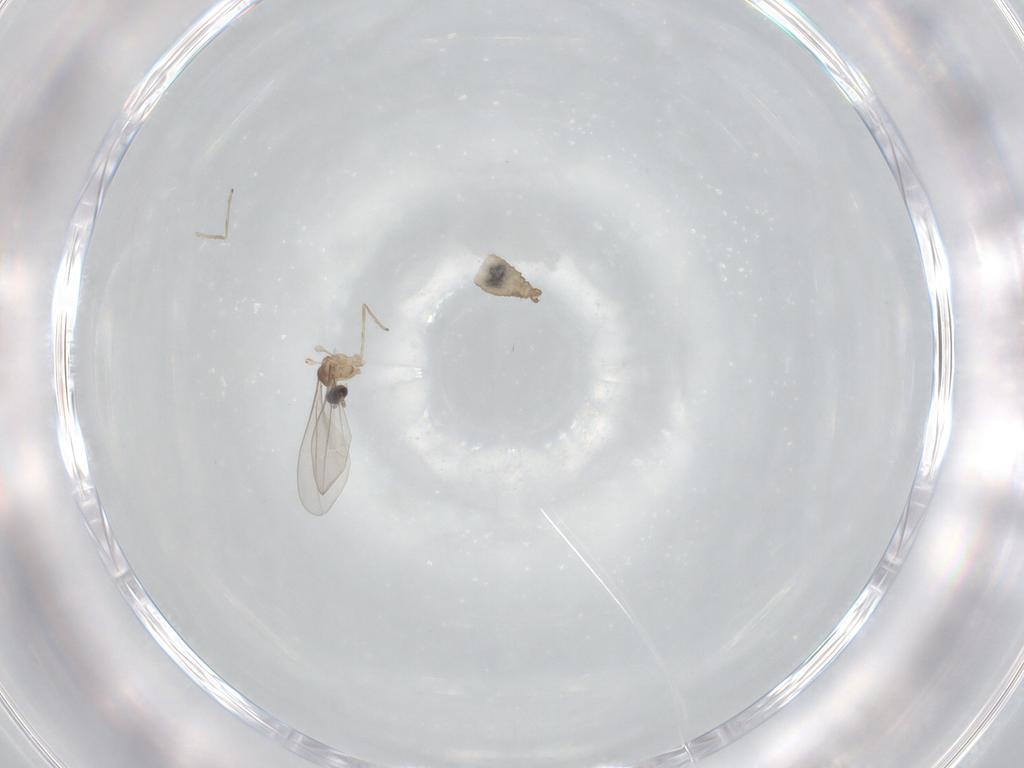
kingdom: Animalia
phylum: Arthropoda
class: Insecta
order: Diptera
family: Cecidomyiidae
